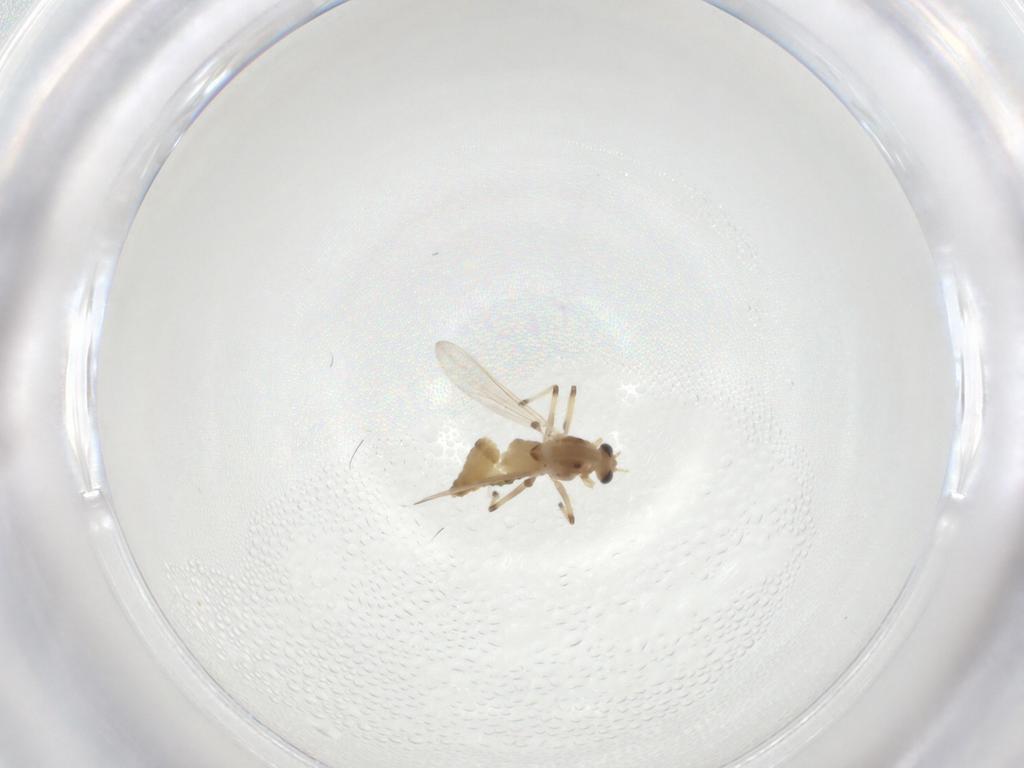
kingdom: Animalia
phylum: Arthropoda
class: Insecta
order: Diptera
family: Chironomidae
